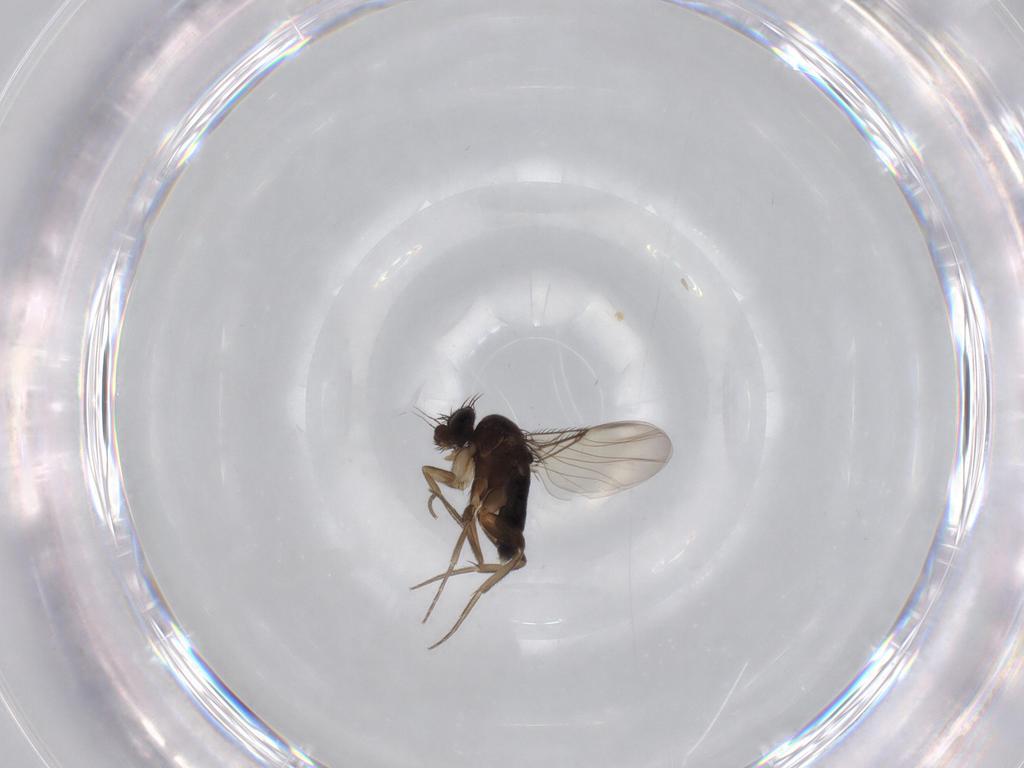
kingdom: Animalia
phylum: Arthropoda
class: Insecta
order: Diptera
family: Phoridae
